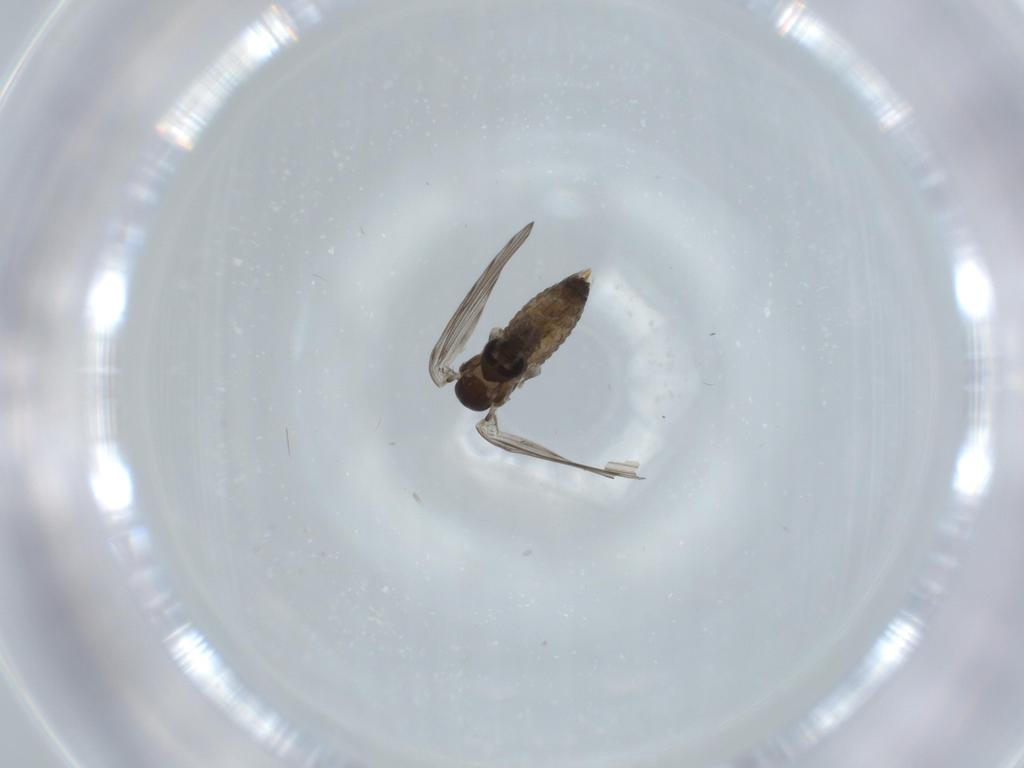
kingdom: Animalia
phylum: Arthropoda
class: Insecta
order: Diptera
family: Psychodidae
